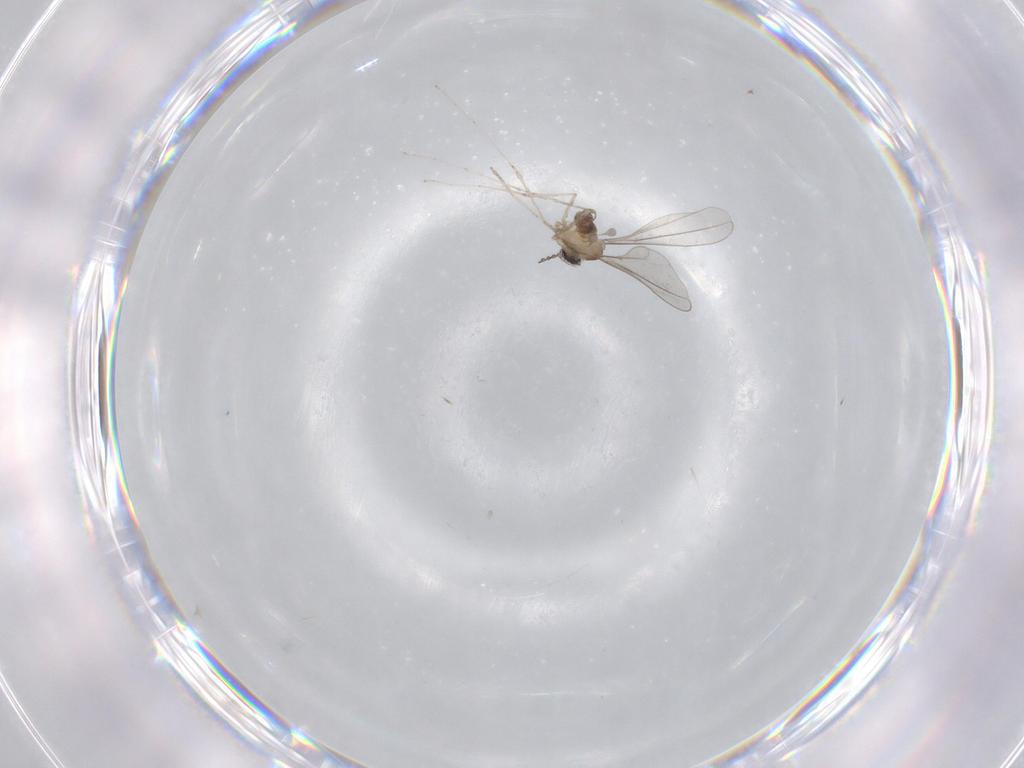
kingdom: Animalia
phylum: Arthropoda
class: Insecta
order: Diptera
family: Cecidomyiidae
